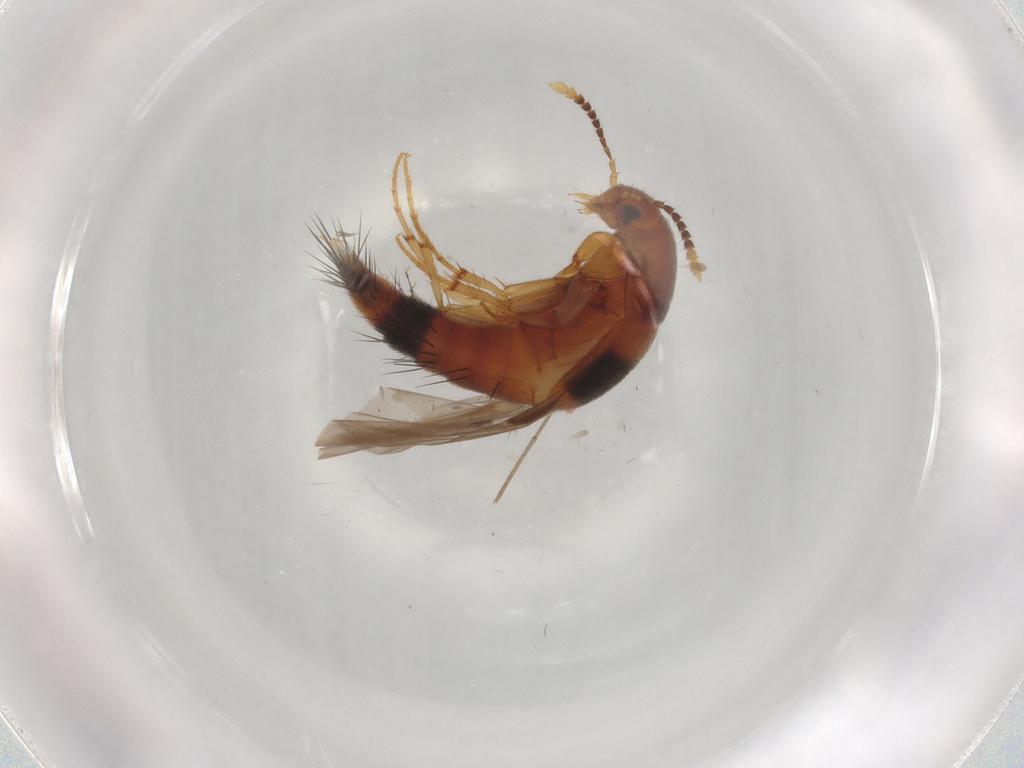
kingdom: Animalia
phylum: Arthropoda
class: Insecta
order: Coleoptera
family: Staphylinidae
